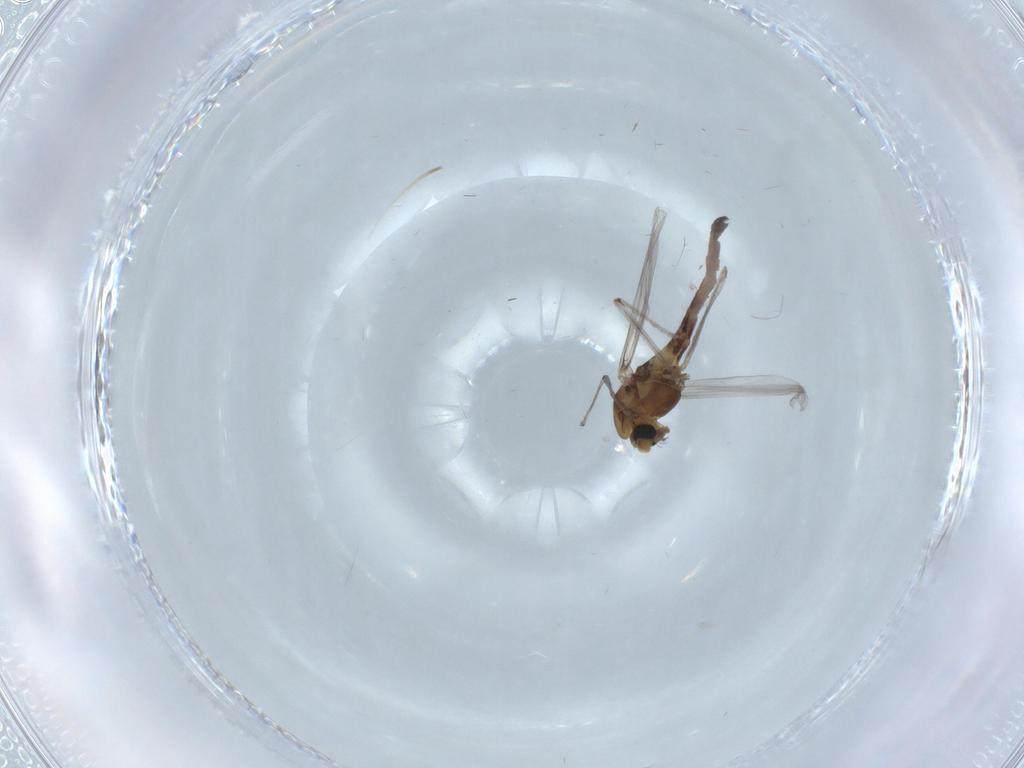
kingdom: Animalia
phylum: Arthropoda
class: Insecta
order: Diptera
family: Chironomidae
